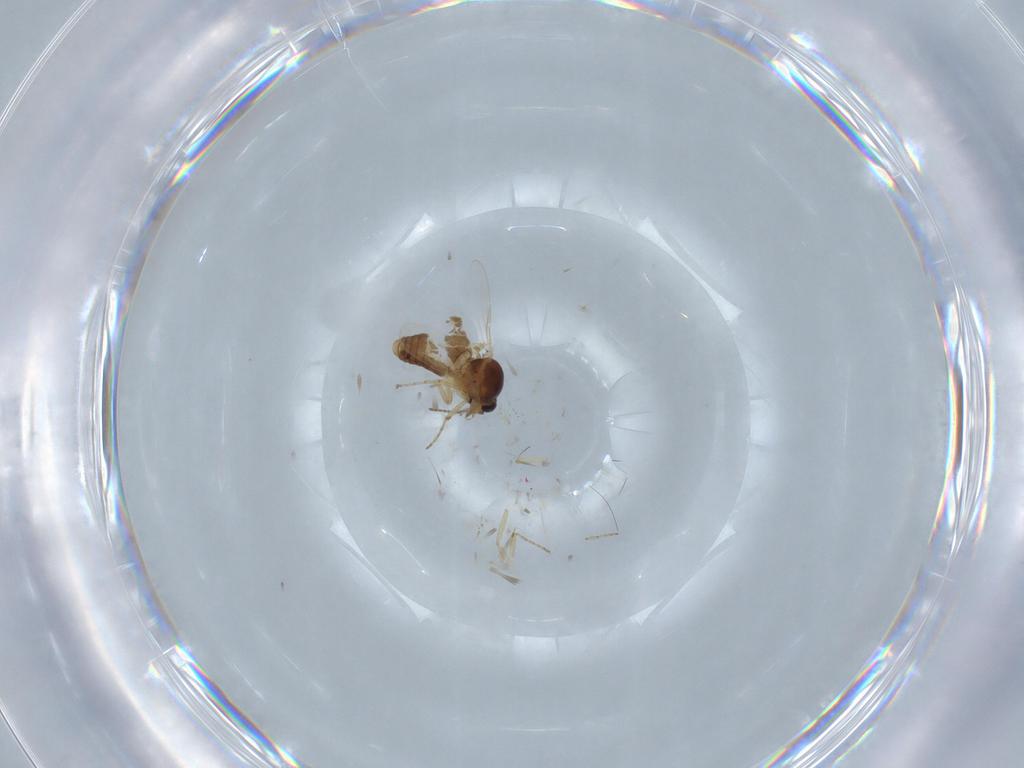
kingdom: Animalia
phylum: Arthropoda
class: Insecta
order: Diptera
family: Ceratopogonidae
